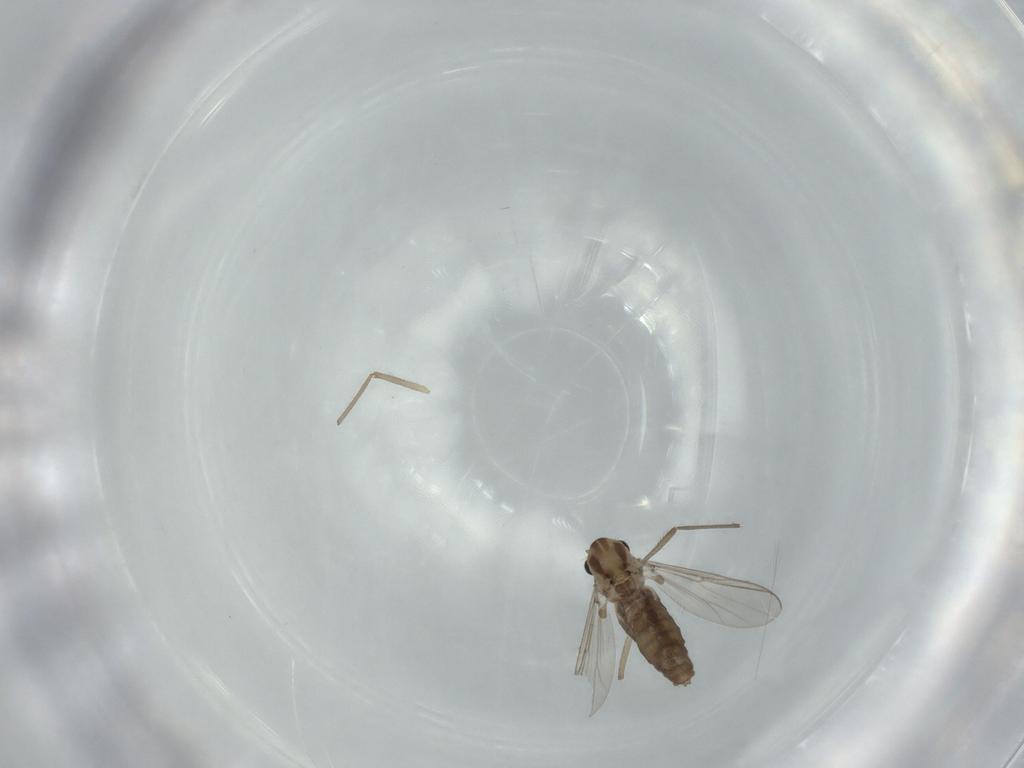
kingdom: Animalia
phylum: Arthropoda
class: Insecta
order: Diptera
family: Chironomidae
